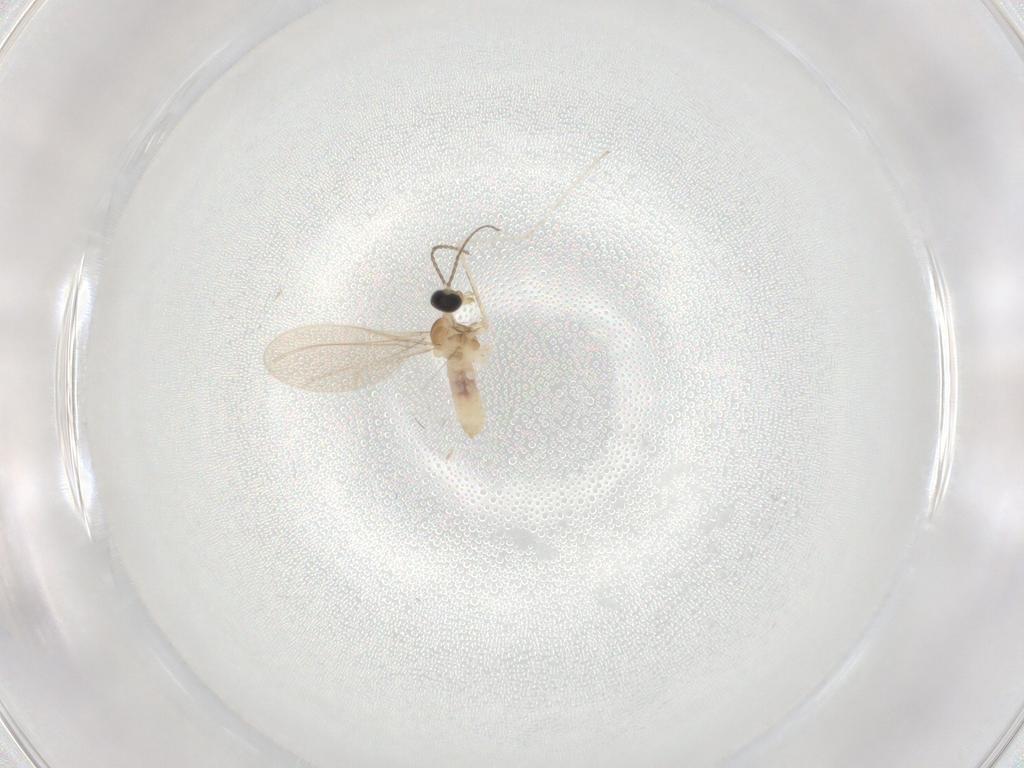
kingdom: Animalia
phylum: Arthropoda
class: Insecta
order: Diptera
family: Cecidomyiidae
